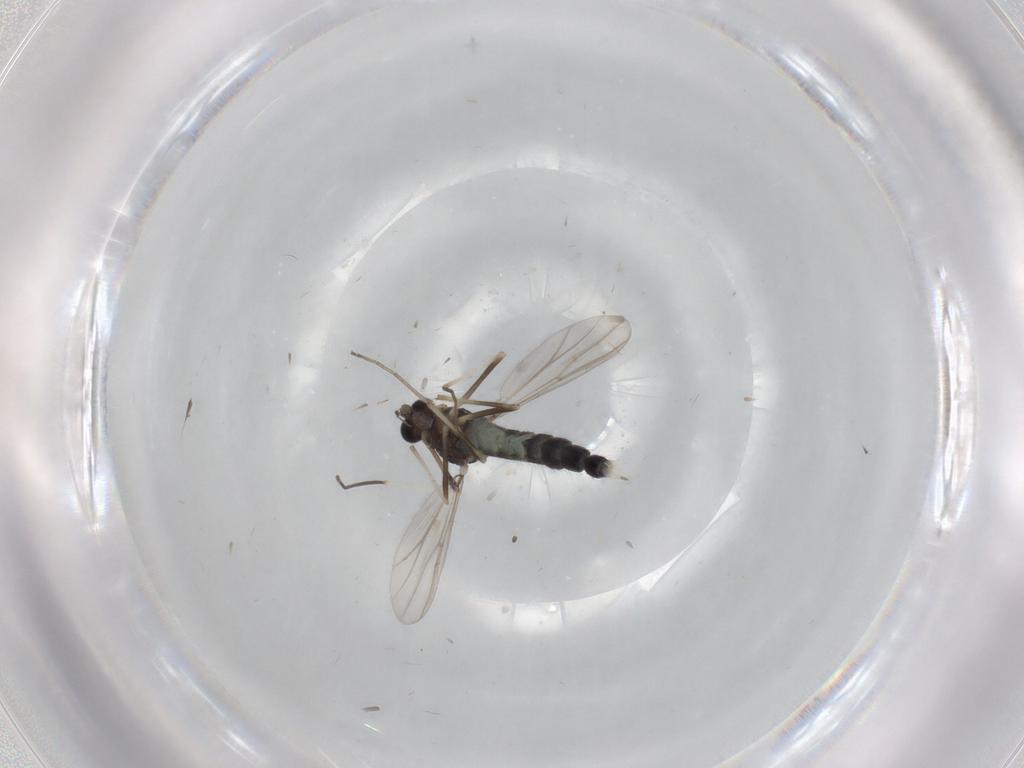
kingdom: Animalia
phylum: Arthropoda
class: Insecta
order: Diptera
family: Chironomidae
